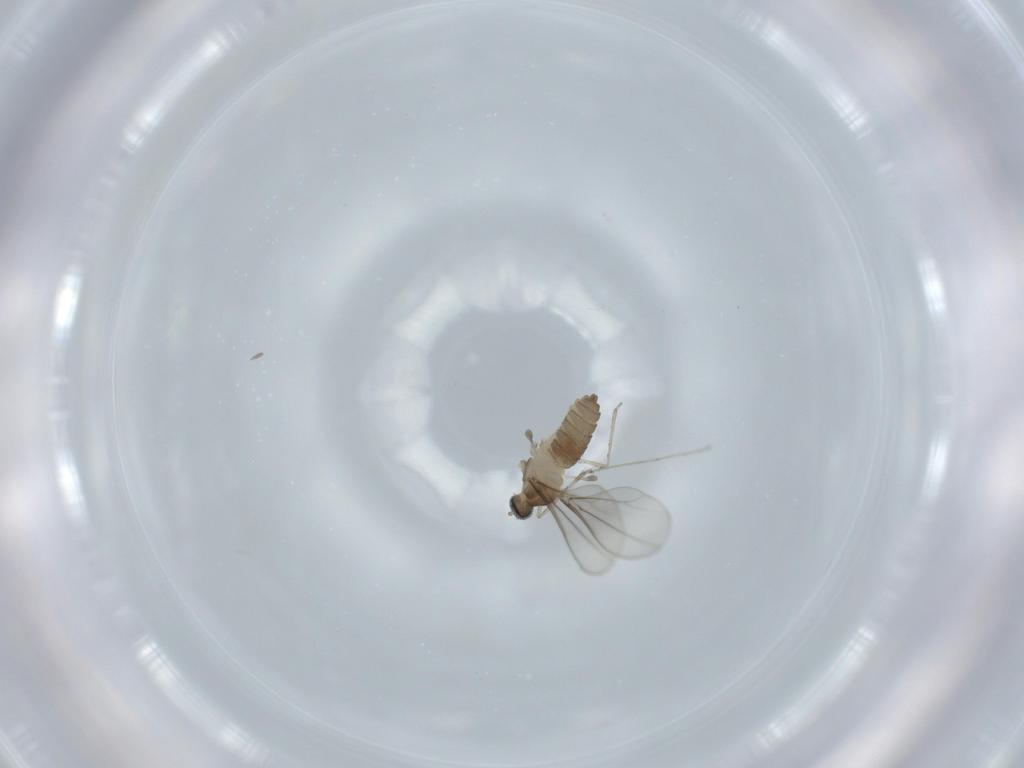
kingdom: Animalia
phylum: Arthropoda
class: Insecta
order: Diptera
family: Cecidomyiidae
